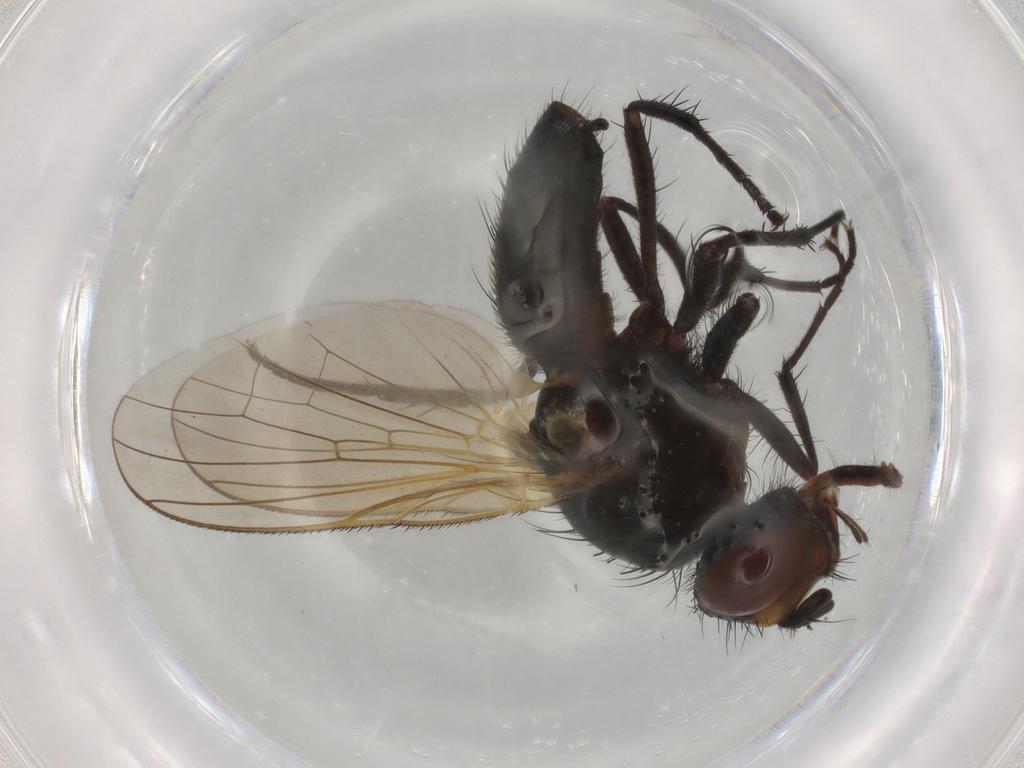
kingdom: Animalia
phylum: Arthropoda
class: Insecta
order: Diptera
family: Anthomyiidae
